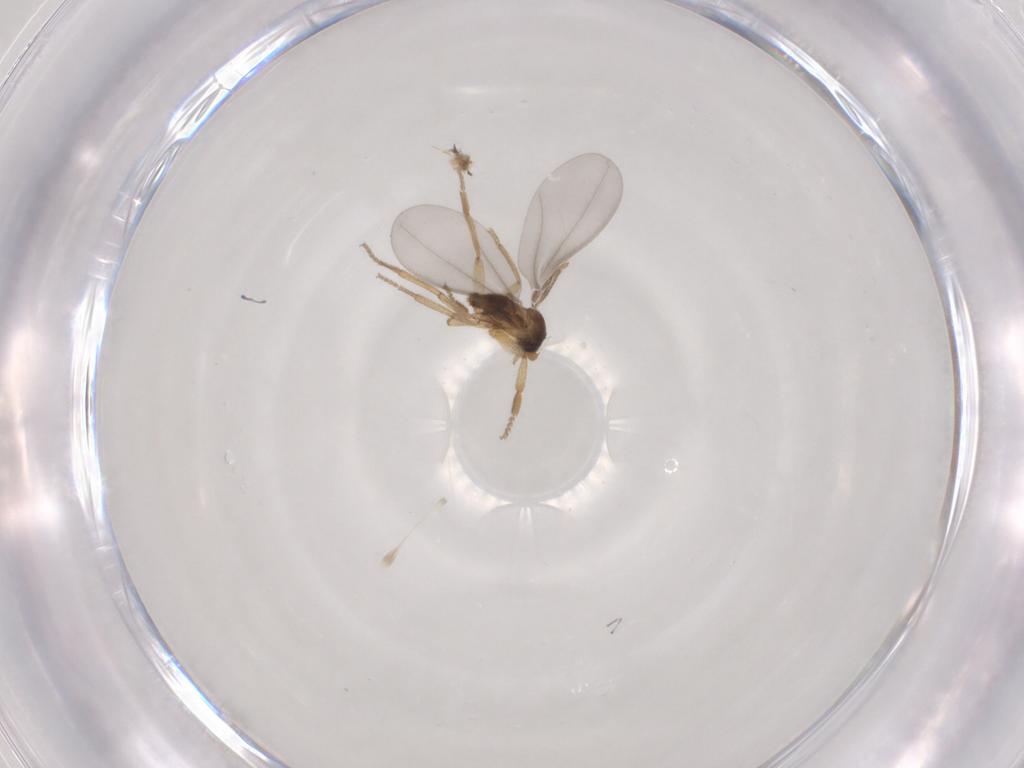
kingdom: Animalia
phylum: Arthropoda
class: Insecta
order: Diptera
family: Phoridae
